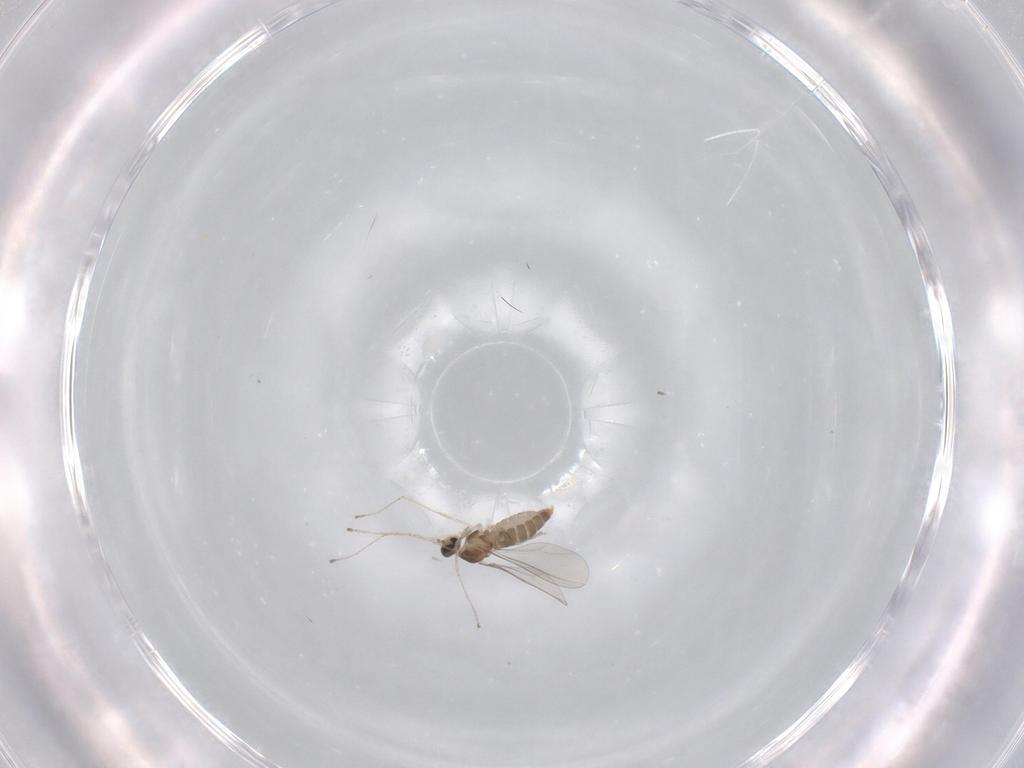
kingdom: Animalia
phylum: Arthropoda
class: Insecta
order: Diptera
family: Cecidomyiidae
